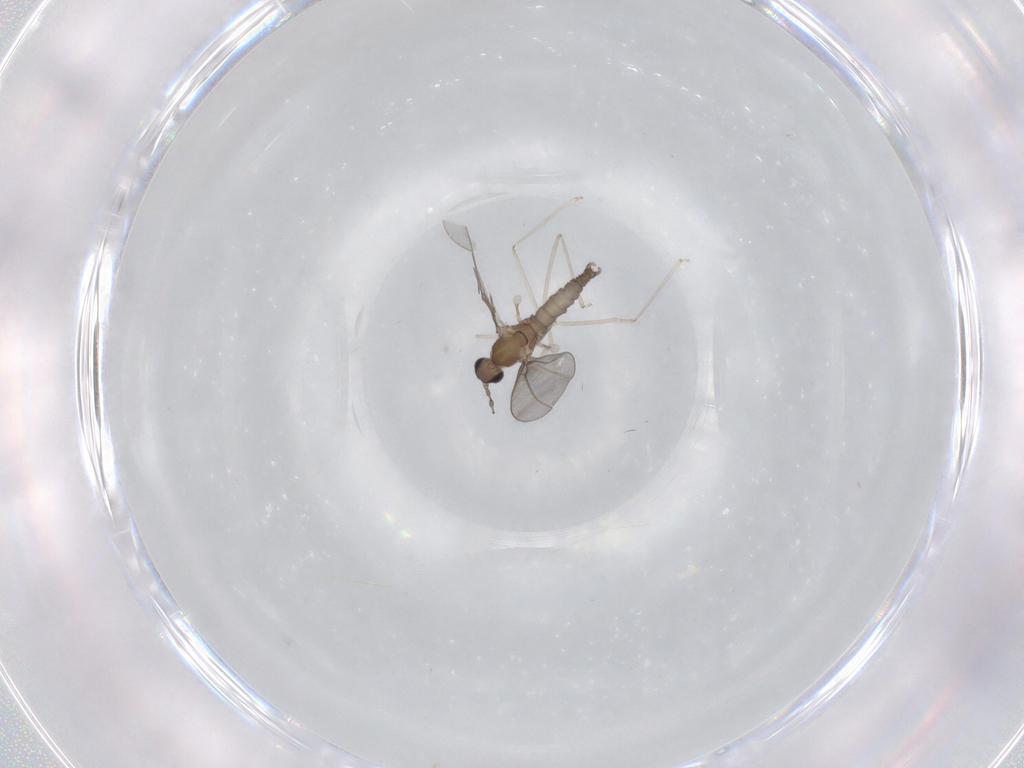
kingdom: Animalia
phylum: Arthropoda
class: Insecta
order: Diptera
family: Cecidomyiidae
